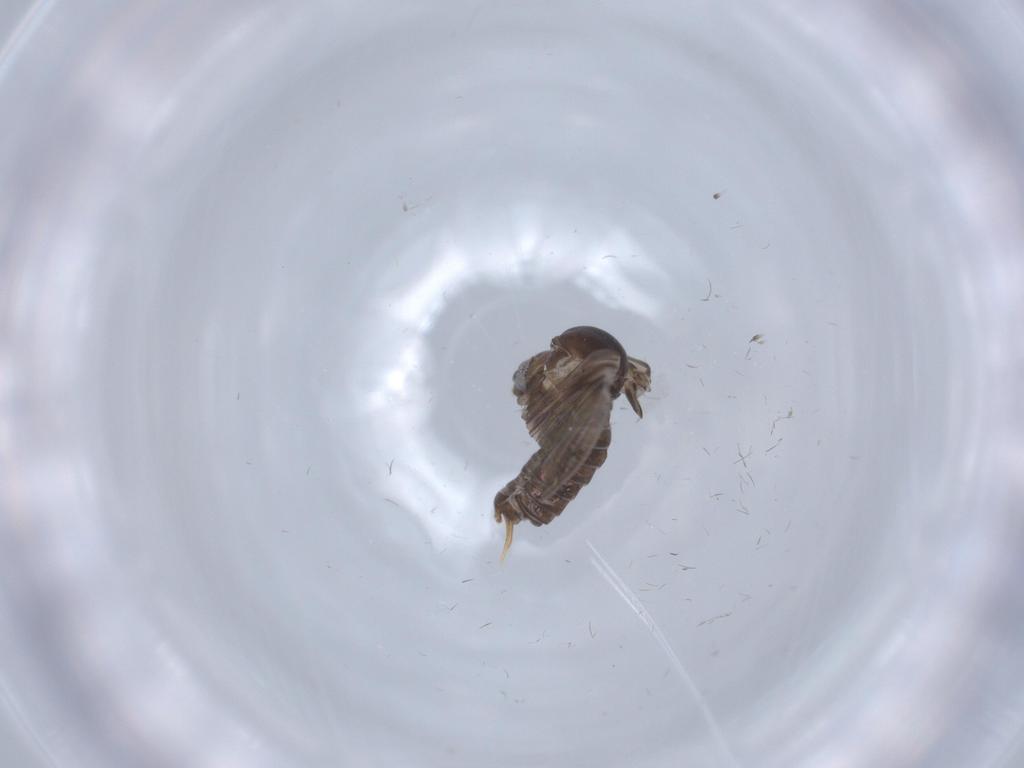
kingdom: Animalia
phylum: Arthropoda
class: Insecta
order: Diptera
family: Psychodidae
